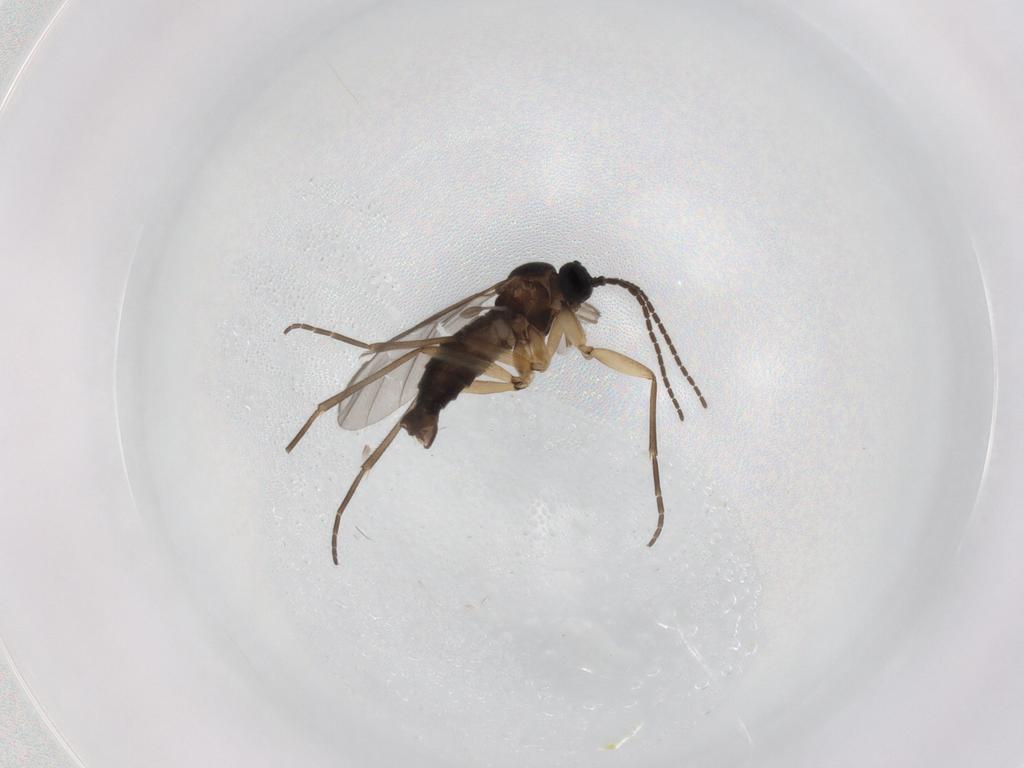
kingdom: Animalia
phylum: Arthropoda
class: Insecta
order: Diptera
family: Sciaridae
